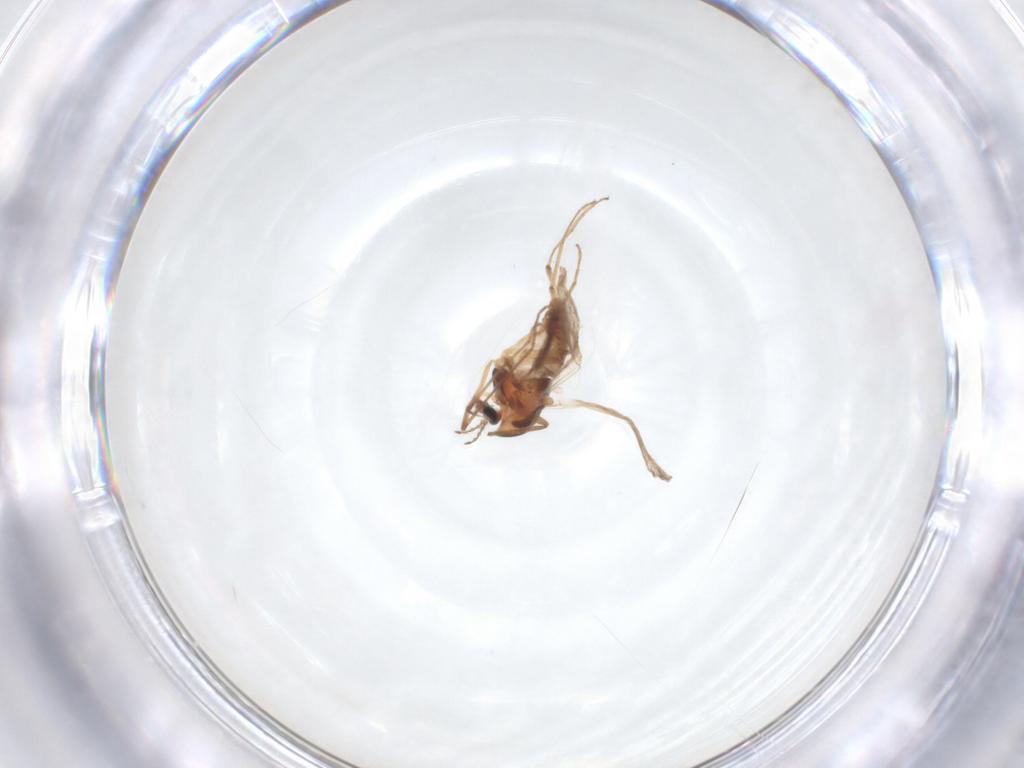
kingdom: Animalia
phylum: Arthropoda
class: Insecta
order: Diptera
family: Chironomidae
